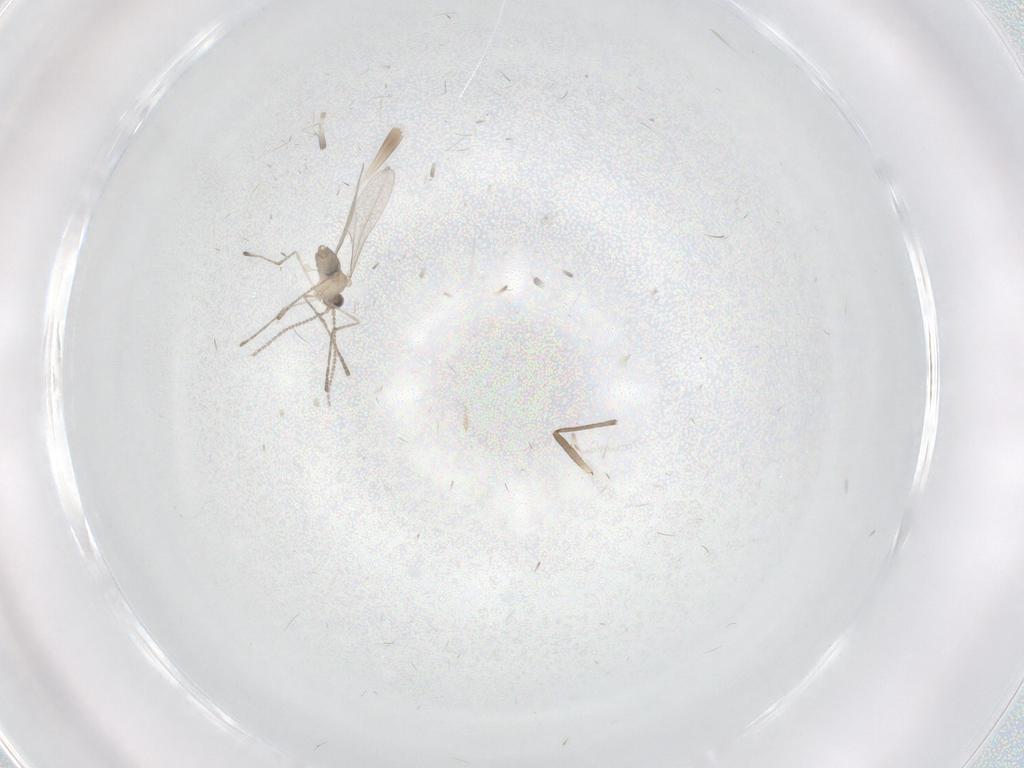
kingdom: Animalia
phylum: Arthropoda
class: Insecta
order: Diptera
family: Cecidomyiidae
